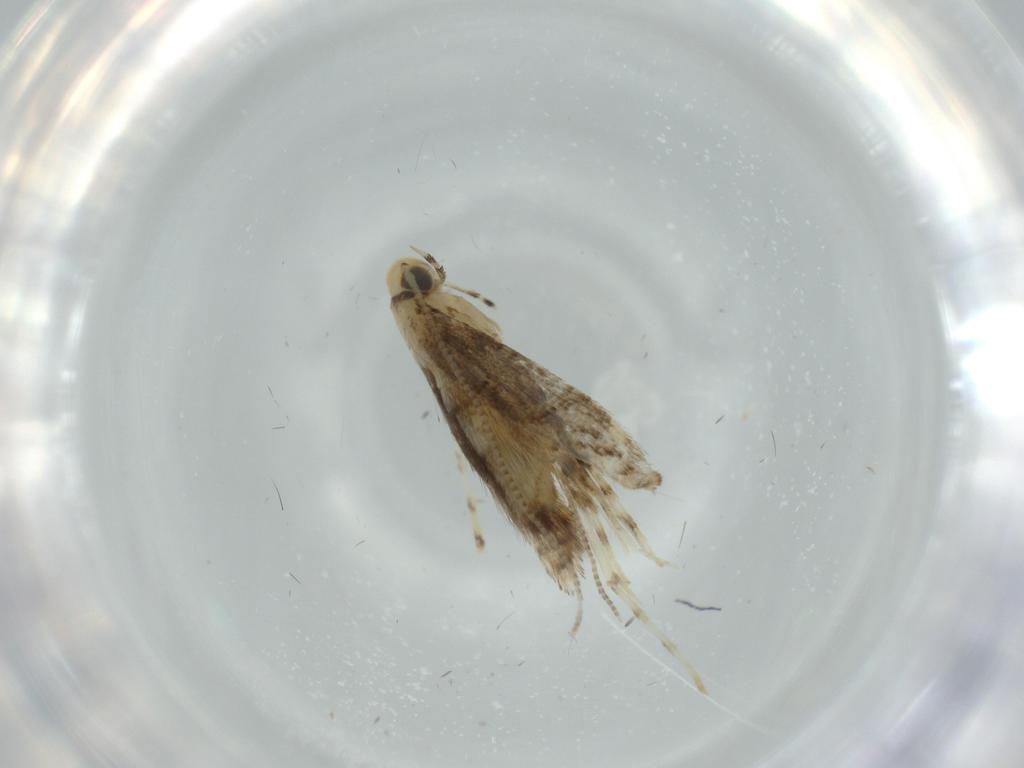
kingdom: Animalia
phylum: Arthropoda
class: Insecta
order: Lepidoptera
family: Gracillariidae
